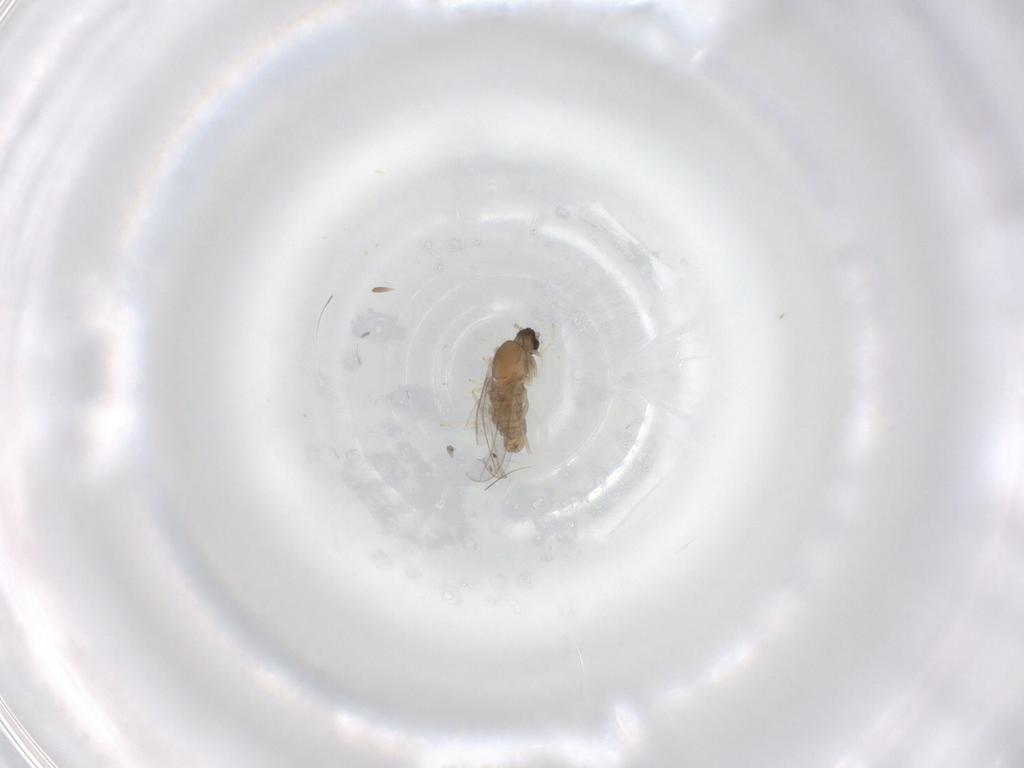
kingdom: Animalia
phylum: Arthropoda
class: Insecta
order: Diptera
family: Cecidomyiidae
